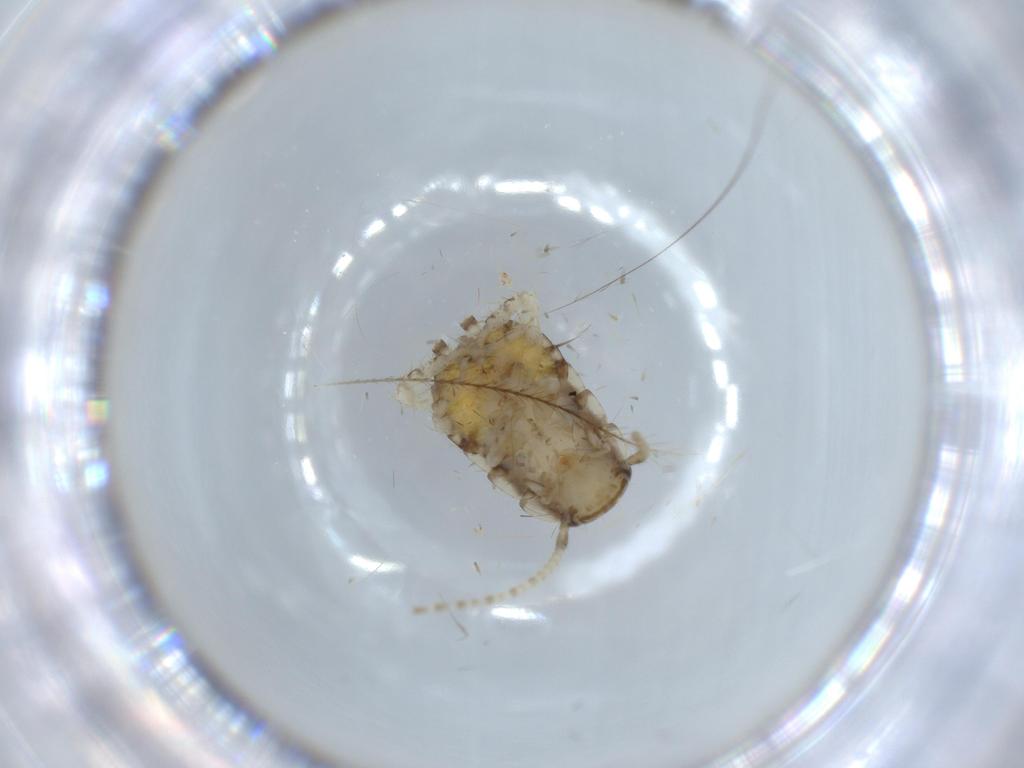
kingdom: Animalia
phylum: Arthropoda
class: Insecta
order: Blattodea
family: Ectobiidae
